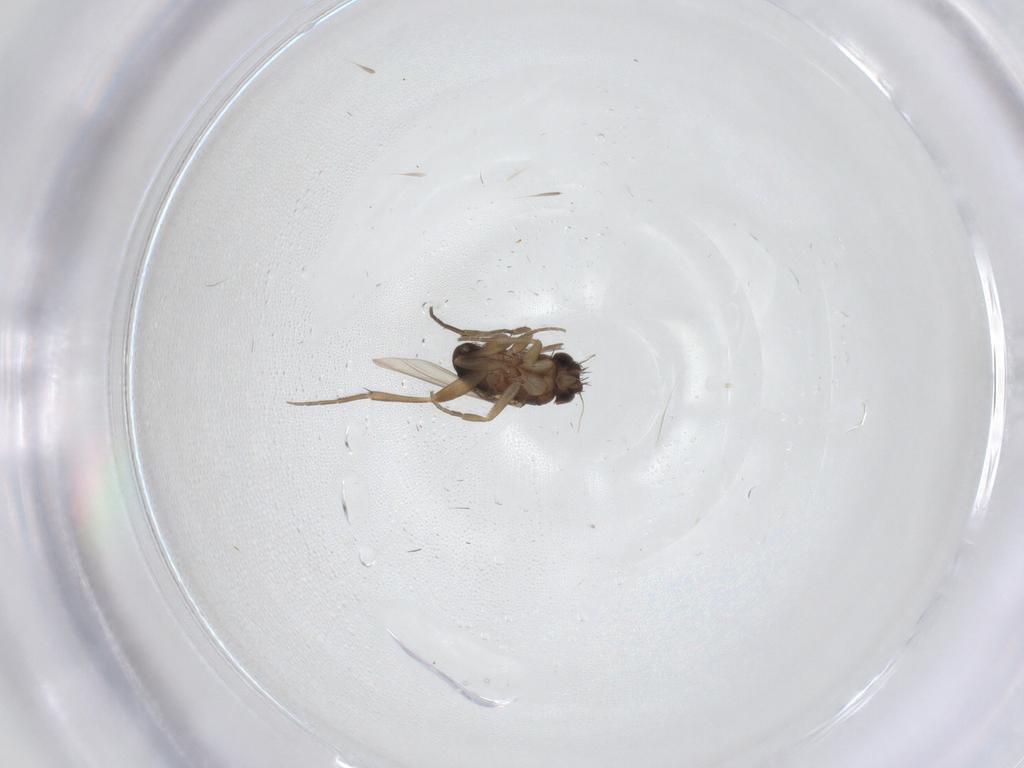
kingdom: Animalia
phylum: Arthropoda
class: Insecta
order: Diptera
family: Phoridae
